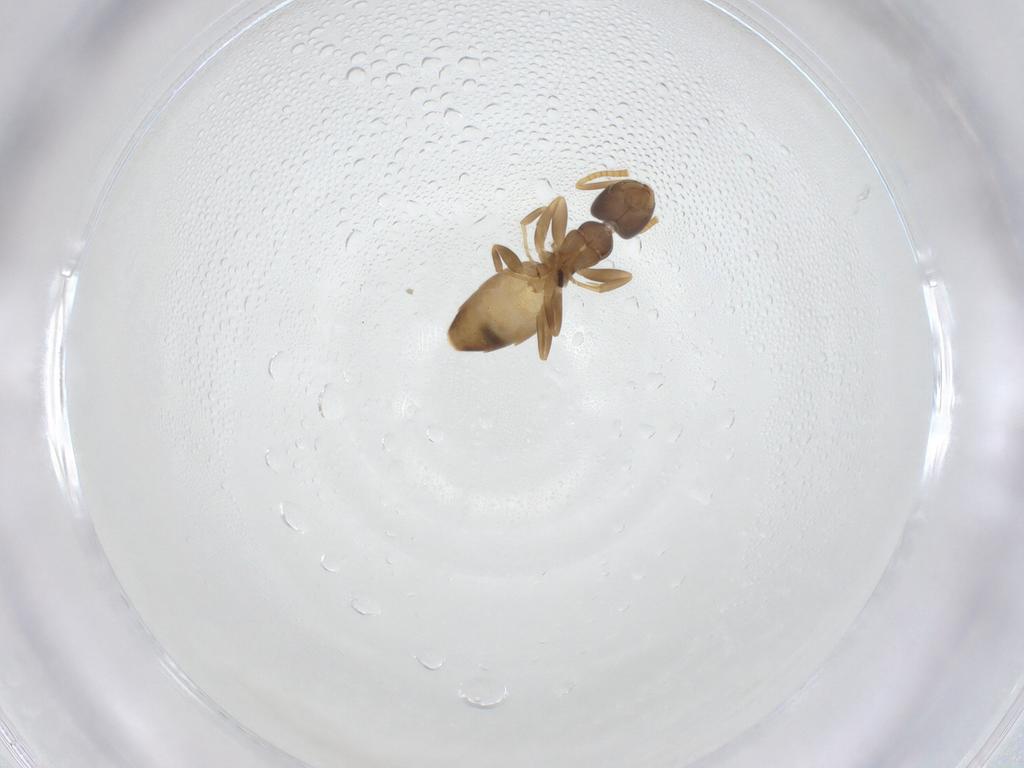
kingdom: Animalia
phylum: Arthropoda
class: Insecta
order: Hymenoptera
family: Formicidae
